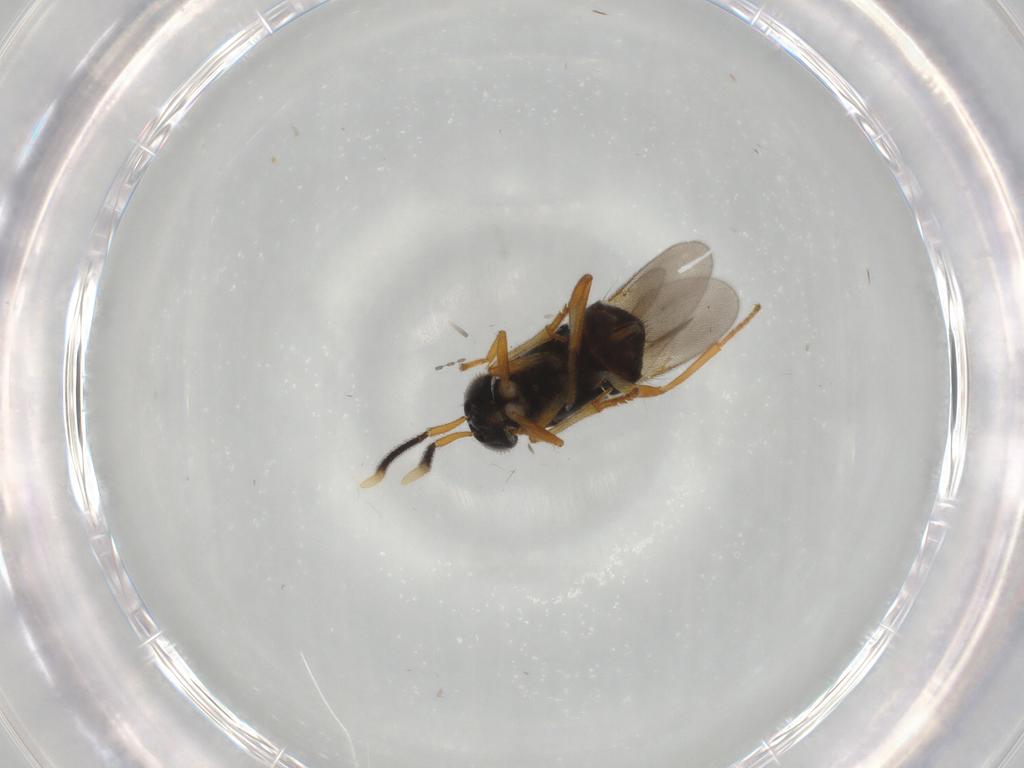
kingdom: Animalia
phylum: Arthropoda
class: Insecta
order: Hymenoptera
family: Encyrtidae
